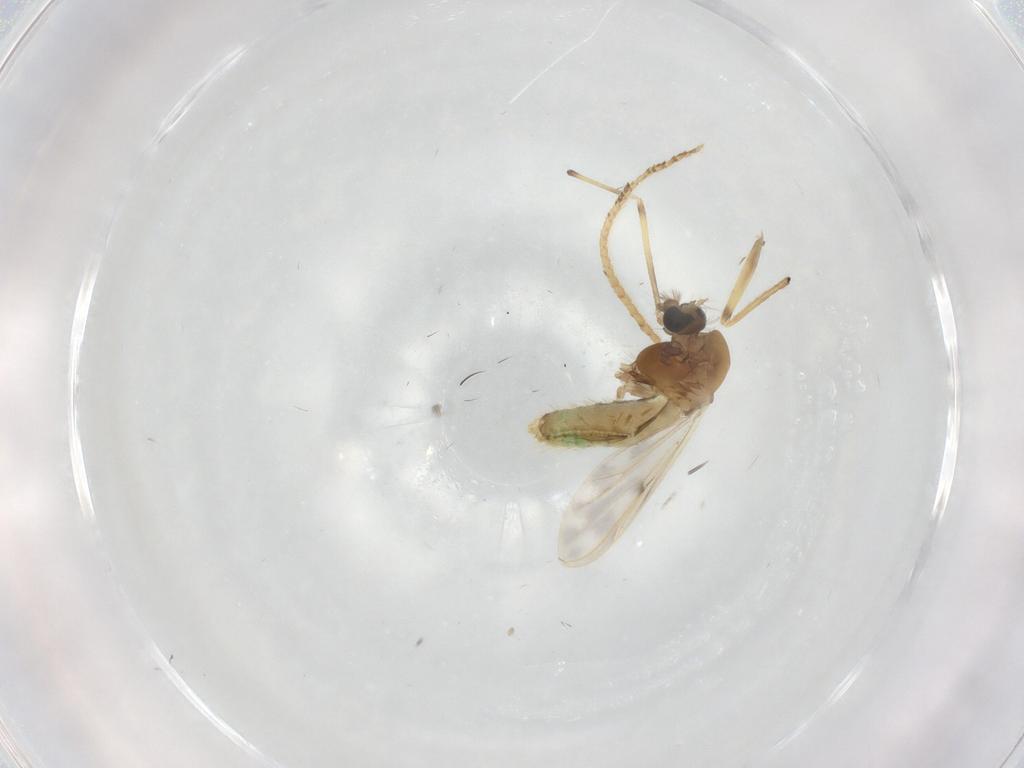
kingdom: Animalia
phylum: Arthropoda
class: Insecta
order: Diptera
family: Chironomidae
